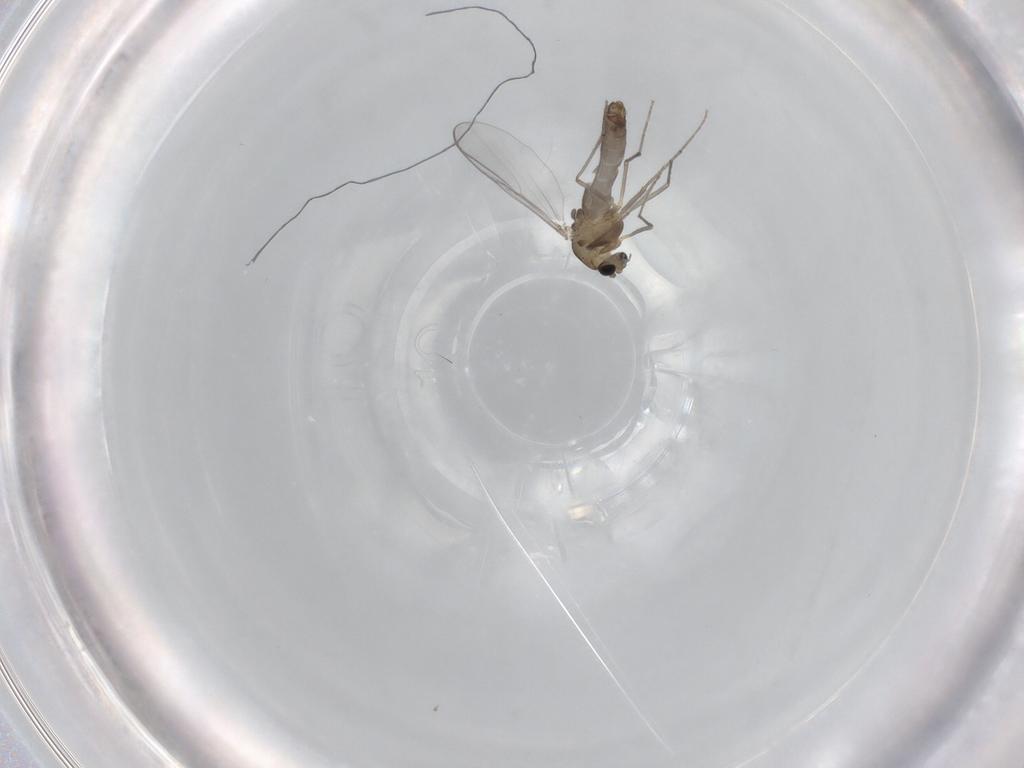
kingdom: Animalia
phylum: Arthropoda
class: Insecta
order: Diptera
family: Chironomidae
